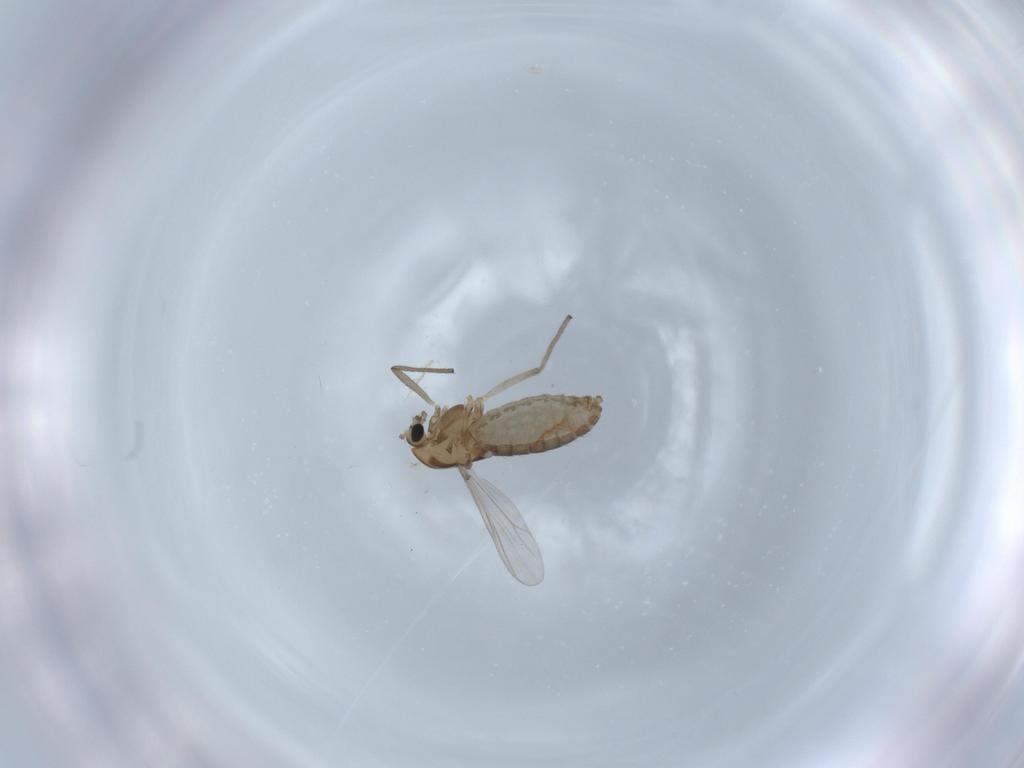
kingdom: Animalia
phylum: Arthropoda
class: Insecta
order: Diptera
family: Chironomidae
